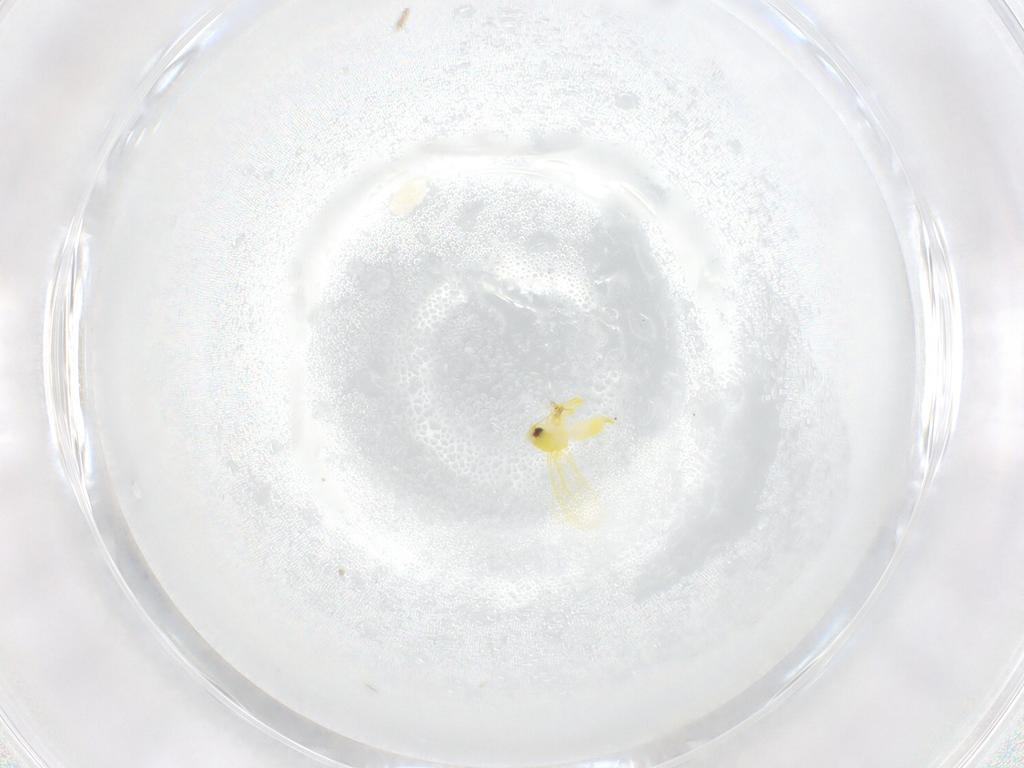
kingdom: Animalia
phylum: Arthropoda
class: Insecta
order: Hemiptera
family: Aleyrodidae
